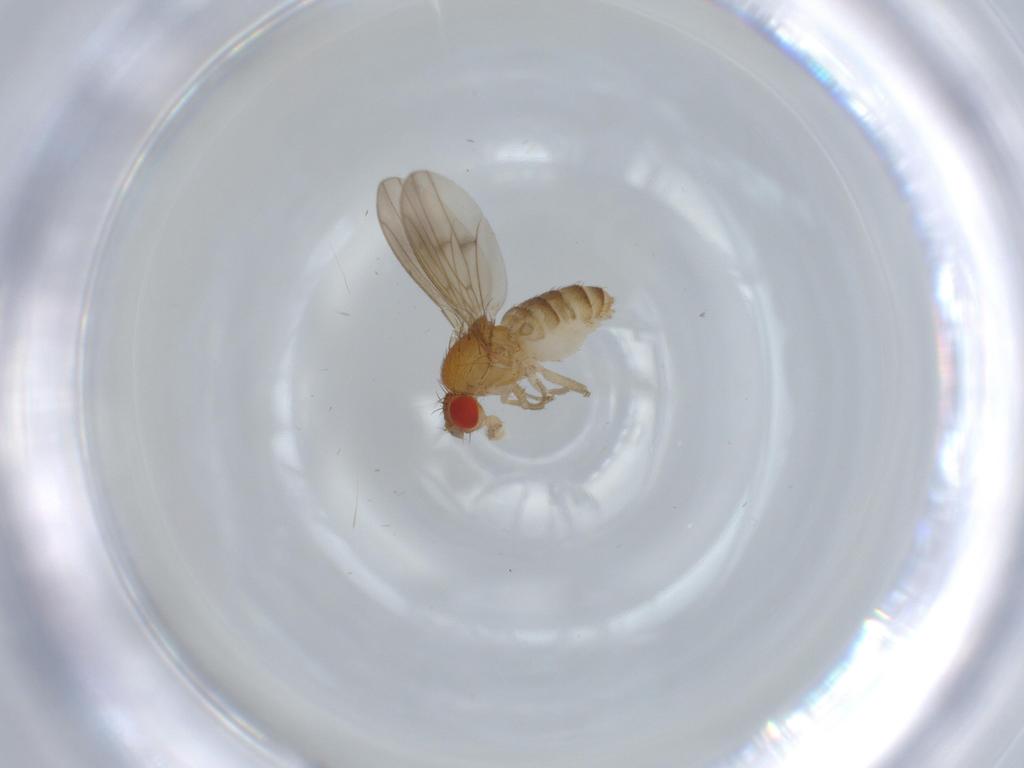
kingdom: Animalia
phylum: Arthropoda
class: Insecta
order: Diptera
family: Drosophilidae
